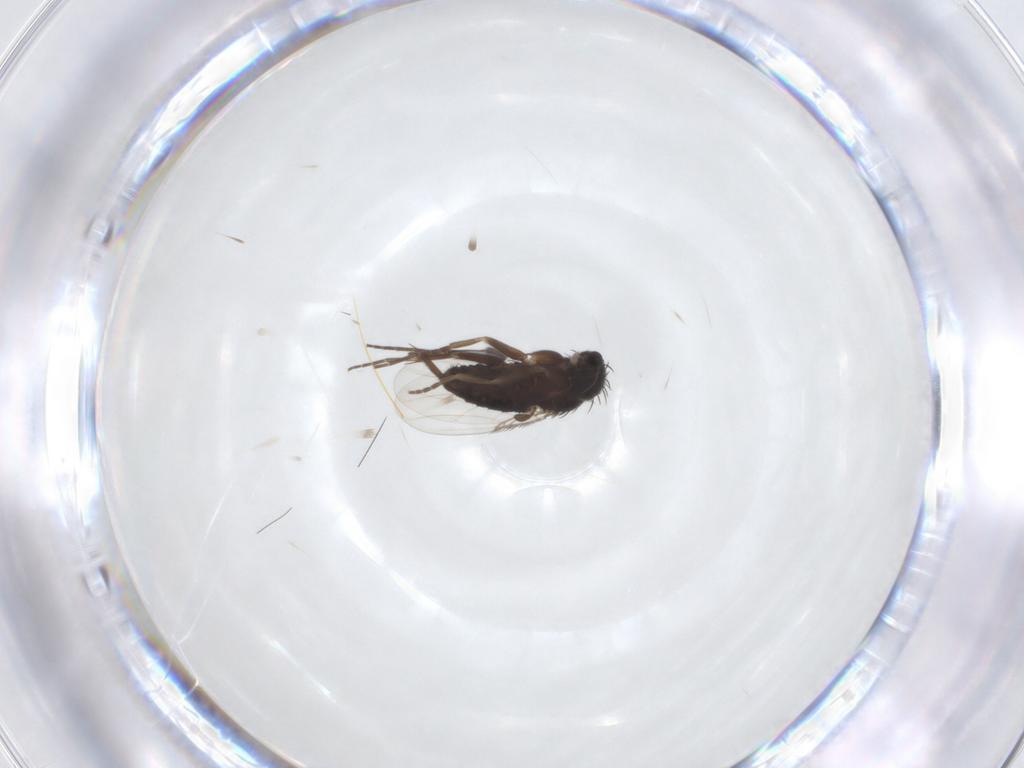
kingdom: Animalia
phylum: Arthropoda
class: Insecta
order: Diptera
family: Phoridae
